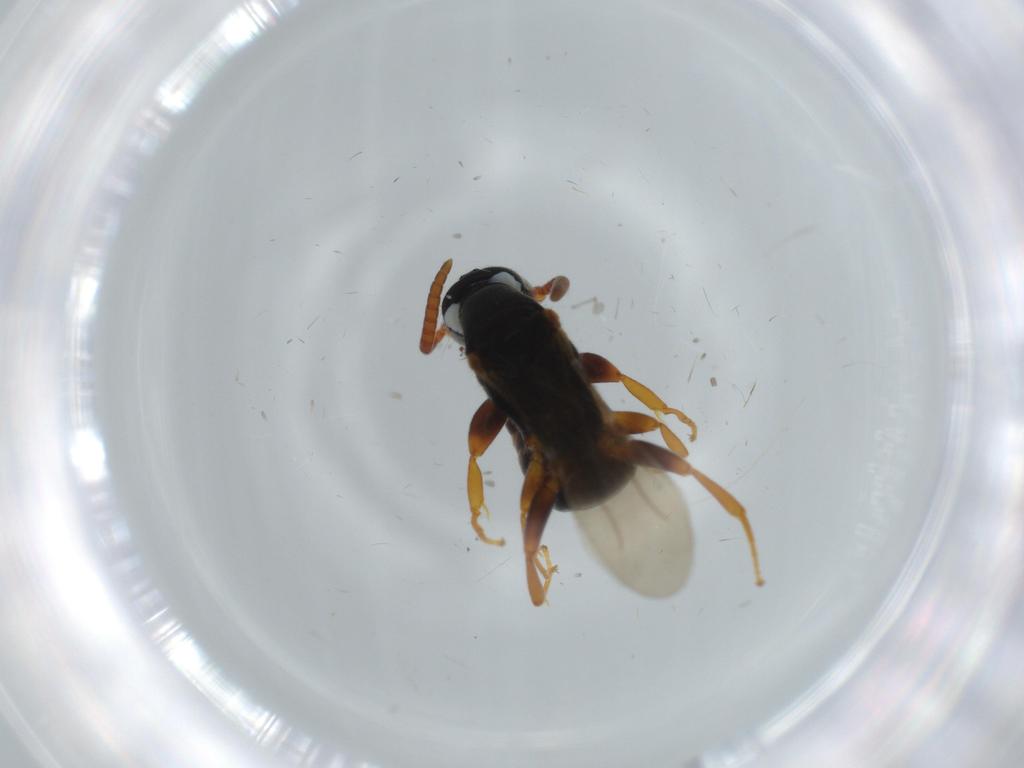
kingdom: Animalia
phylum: Arthropoda
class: Insecta
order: Hymenoptera
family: Bethylidae
